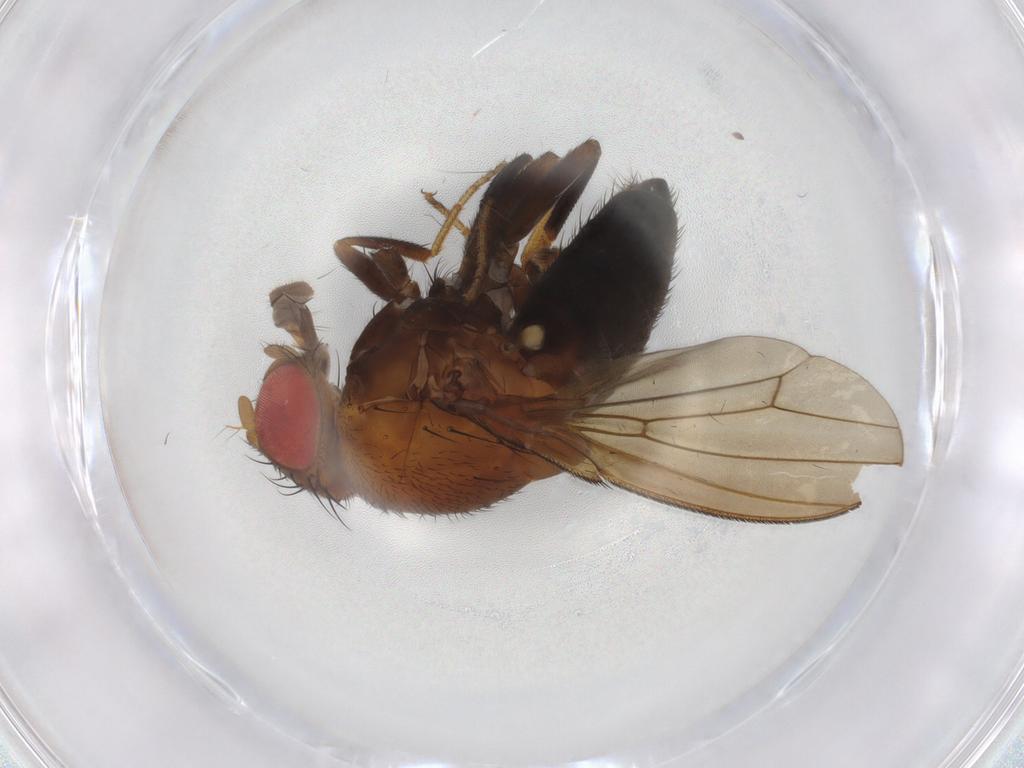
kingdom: Animalia
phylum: Arthropoda
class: Insecta
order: Diptera
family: Drosophilidae
